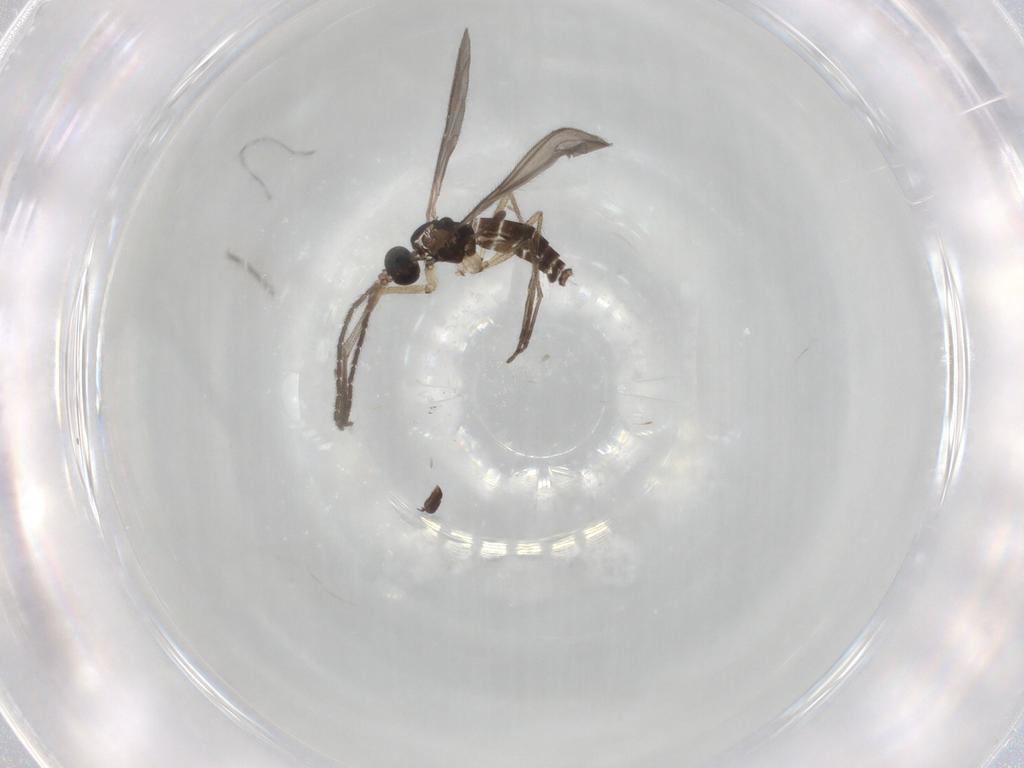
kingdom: Animalia
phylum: Arthropoda
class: Insecta
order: Diptera
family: Sciaridae
